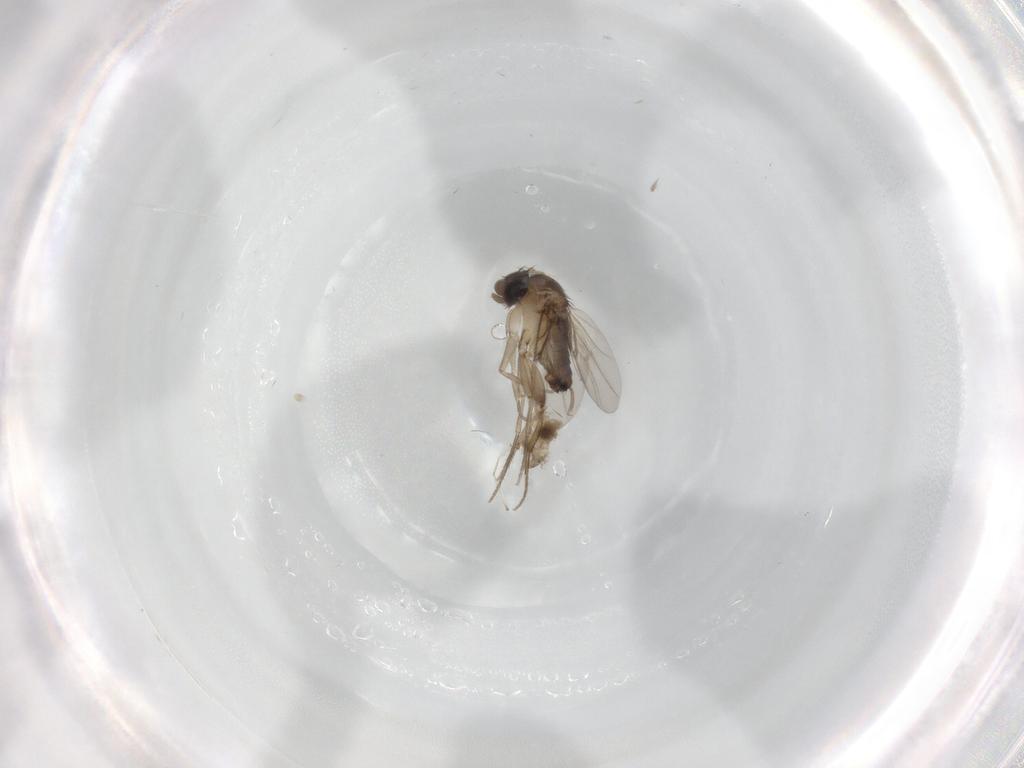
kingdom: Animalia
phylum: Arthropoda
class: Insecta
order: Diptera
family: Cecidomyiidae
